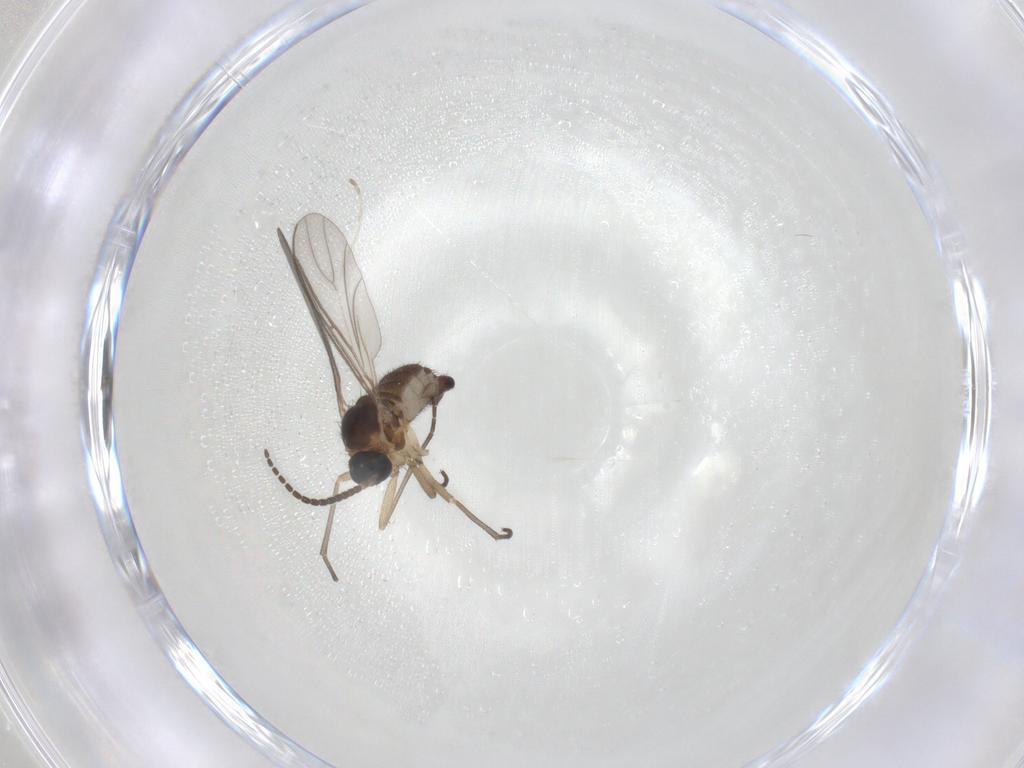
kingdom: Animalia
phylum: Arthropoda
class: Insecta
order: Diptera
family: Sciaridae
